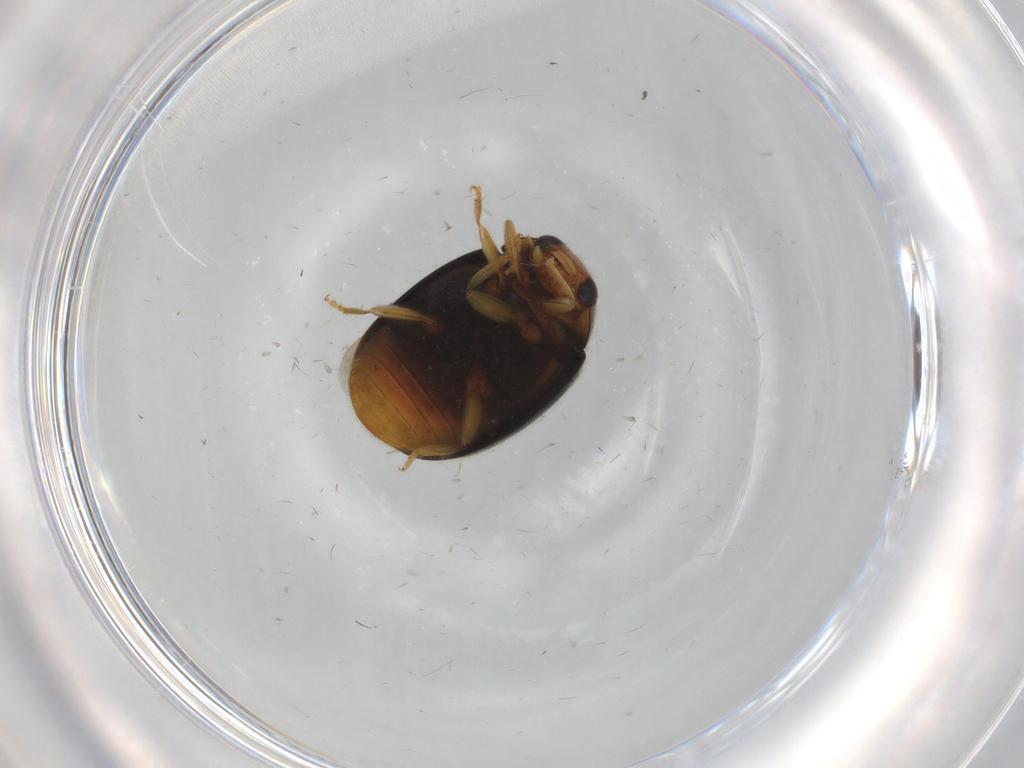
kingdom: Animalia
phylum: Arthropoda
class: Insecta
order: Coleoptera
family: Coccinellidae
